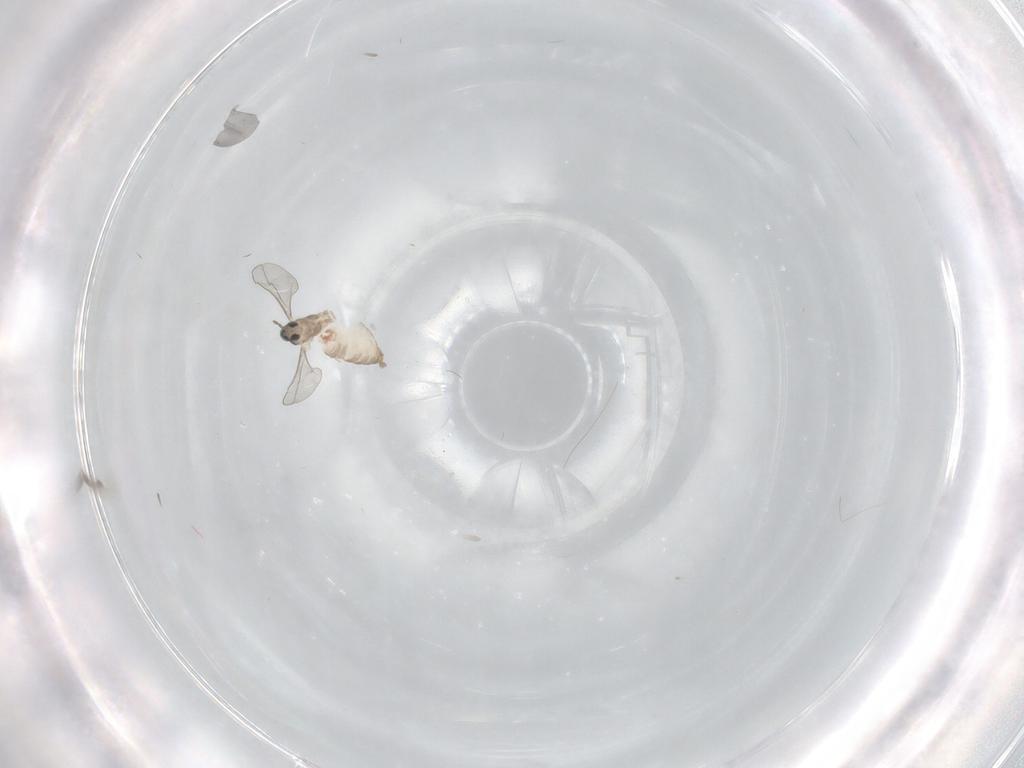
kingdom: Animalia
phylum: Arthropoda
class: Insecta
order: Diptera
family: Cecidomyiidae
